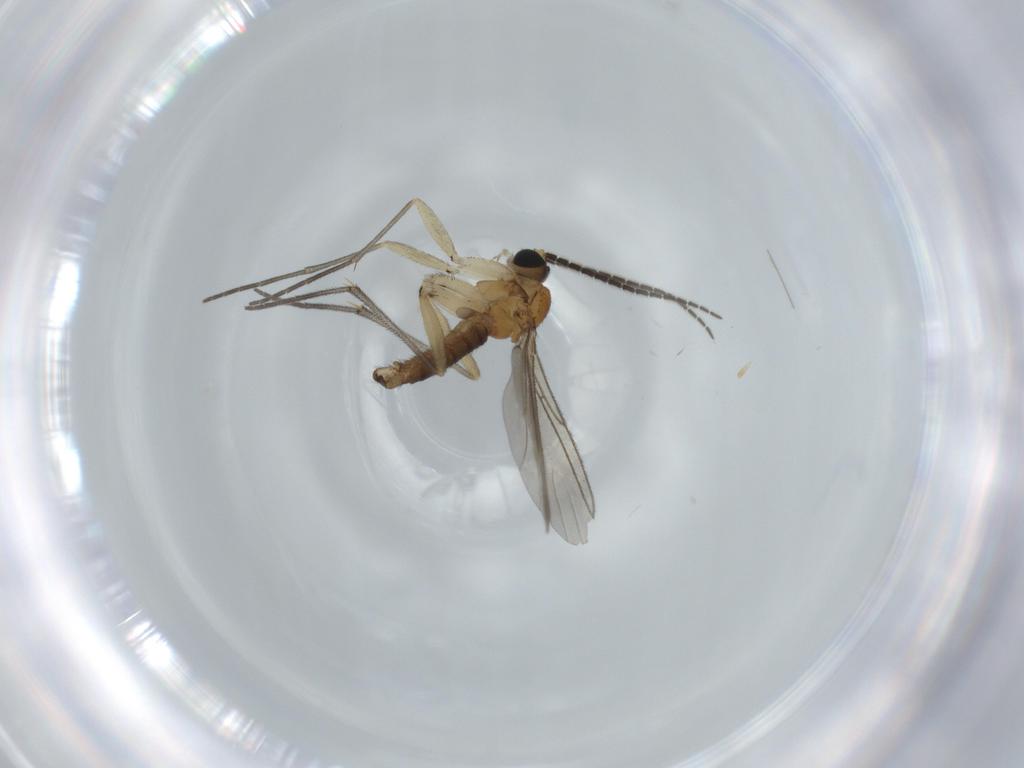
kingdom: Animalia
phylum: Arthropoda
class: Insecta
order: Diptera
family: Sciaridae
